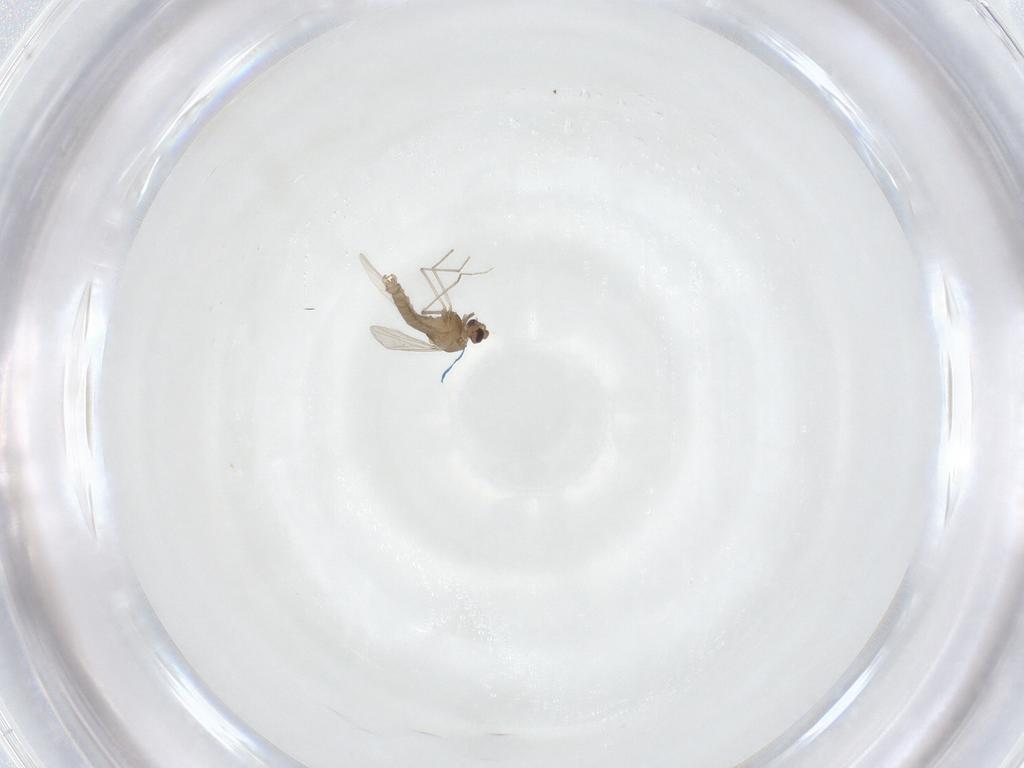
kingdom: Animalia
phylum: Arthropoda
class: Insecta
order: Diptera
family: Chironomidae
